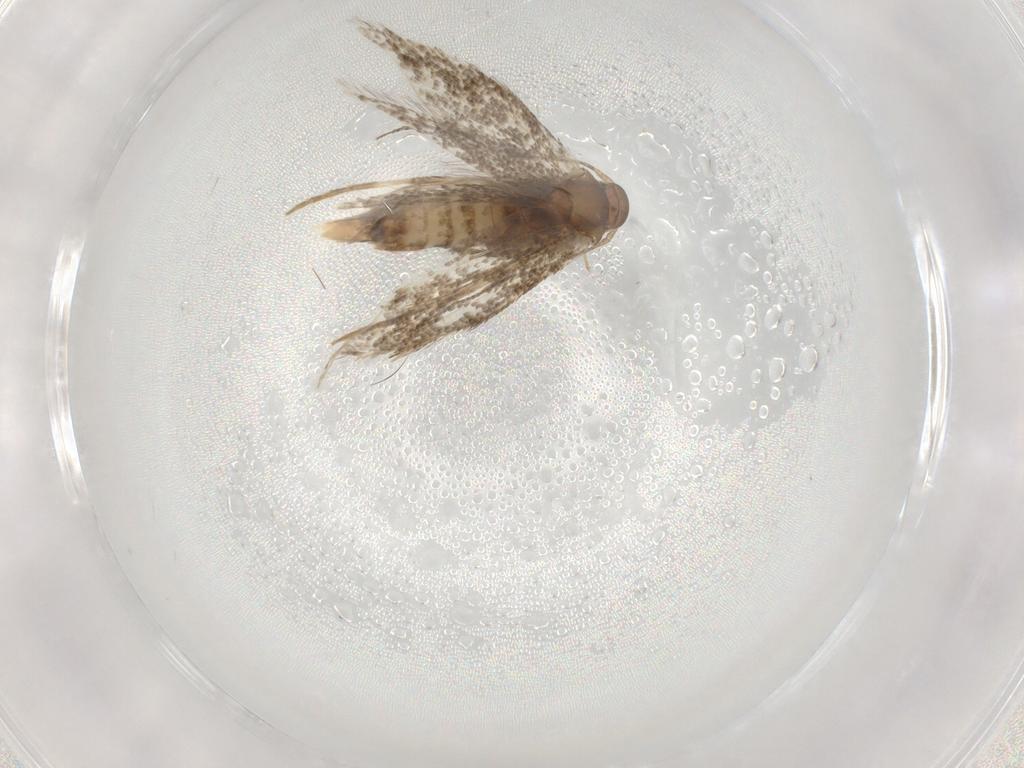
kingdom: Animalia
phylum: Arthropoda
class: Insecta
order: Lepidoptera
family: Elachistidae
